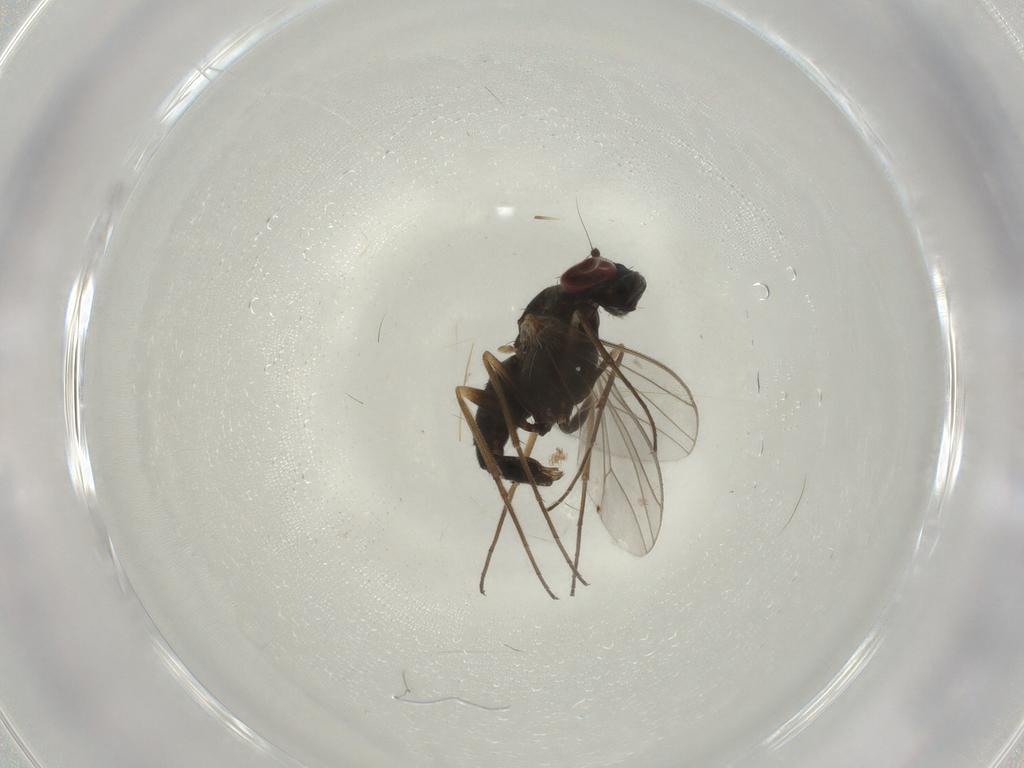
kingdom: Animalia
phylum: Arthropoda
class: Insecta
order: Diptera
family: Dolichopodidae
